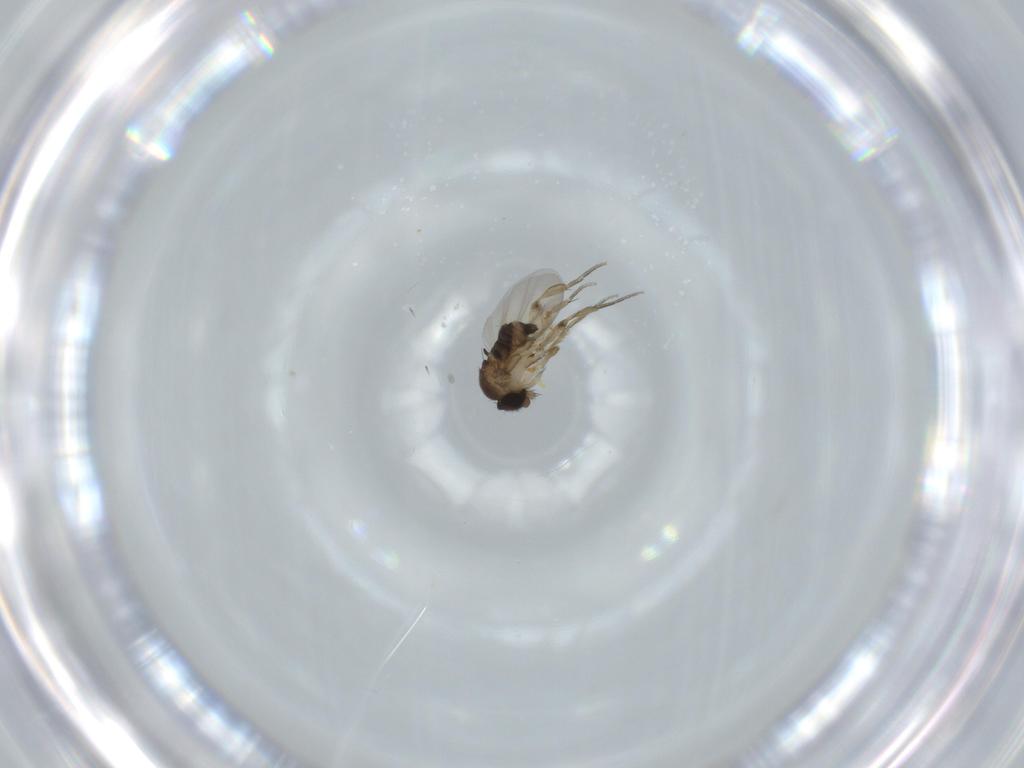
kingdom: Animalia
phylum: Arthropoda
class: Insecta
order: Diptera
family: Phoridae
